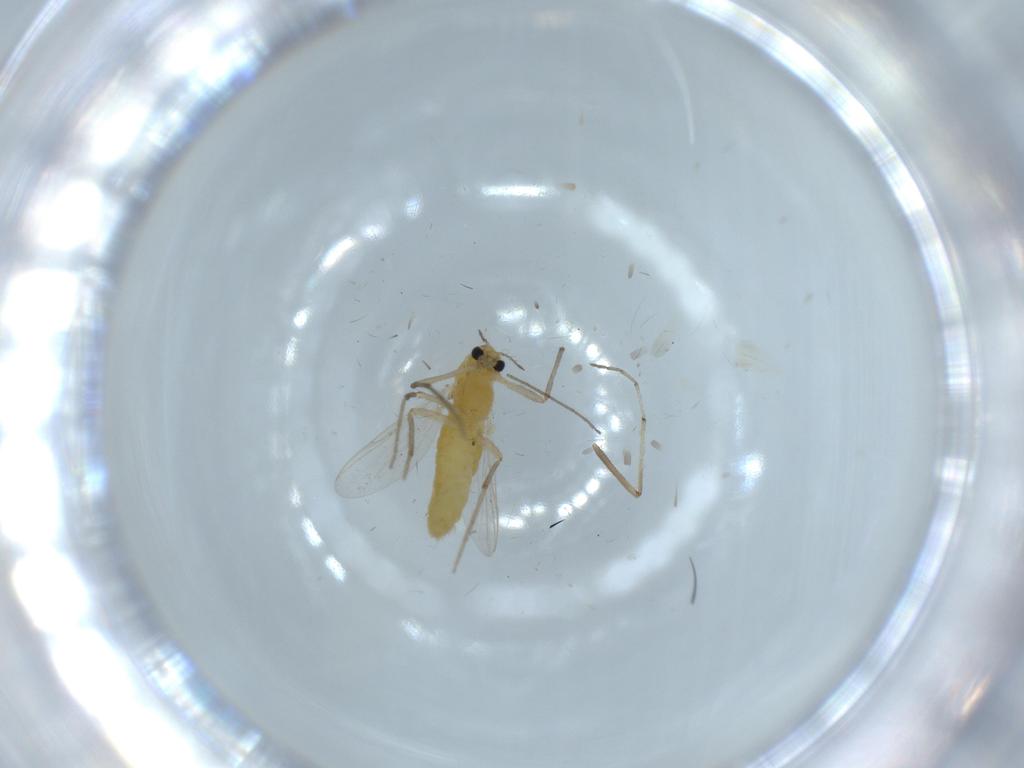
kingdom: Animalia
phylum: Arthropoda
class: Insecta
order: Diptera
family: Chironomidae
